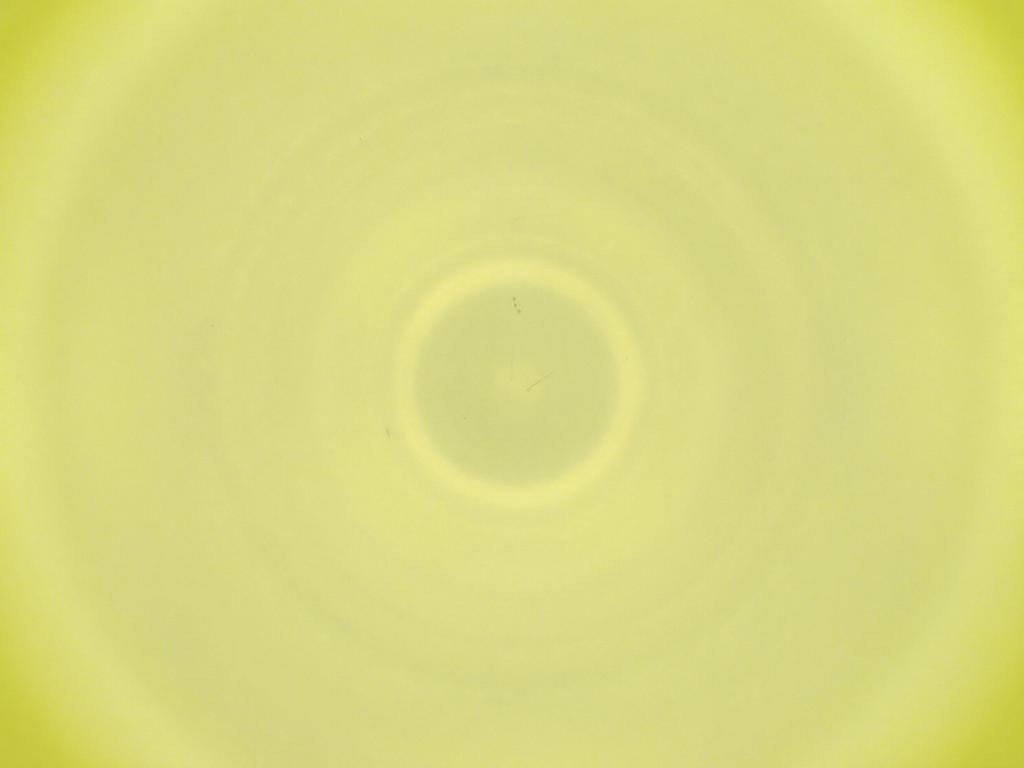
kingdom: Animalia
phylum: Arthropoda
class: Insecta
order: Diptera
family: Cecidomyiidae
